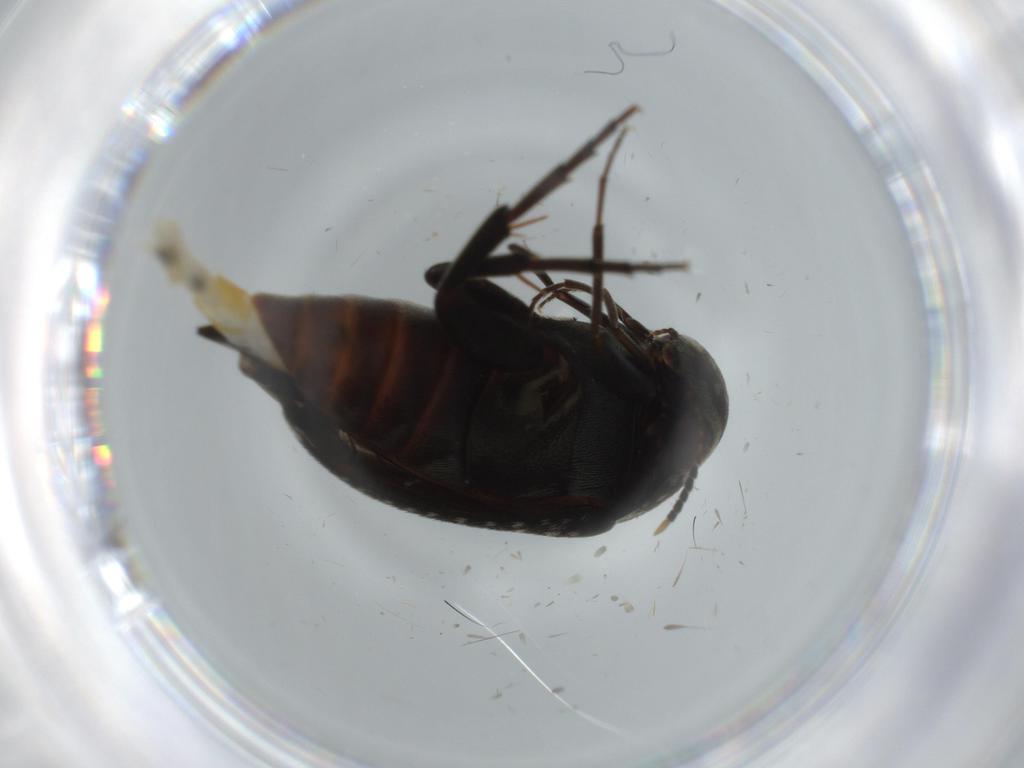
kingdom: Animalia
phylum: Arthropoda
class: Insecta
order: Coleoptera
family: Mordellidae
